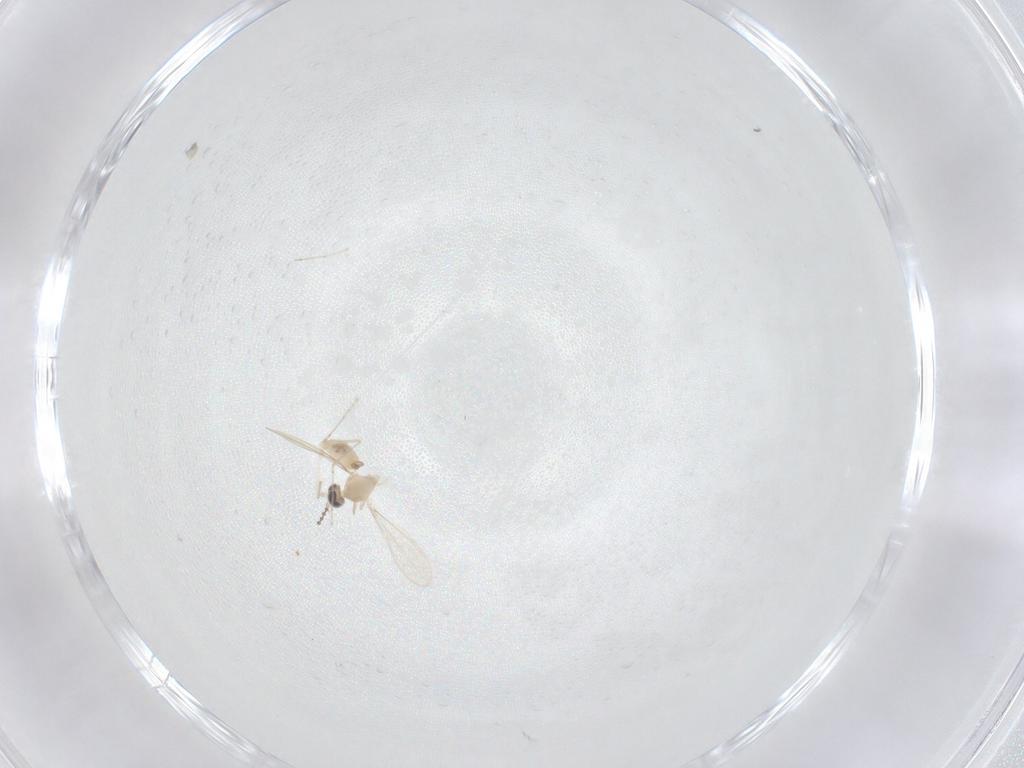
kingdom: Animalia
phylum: Arthropoda
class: Insecta
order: Diptera
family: Cecidomyiidae
